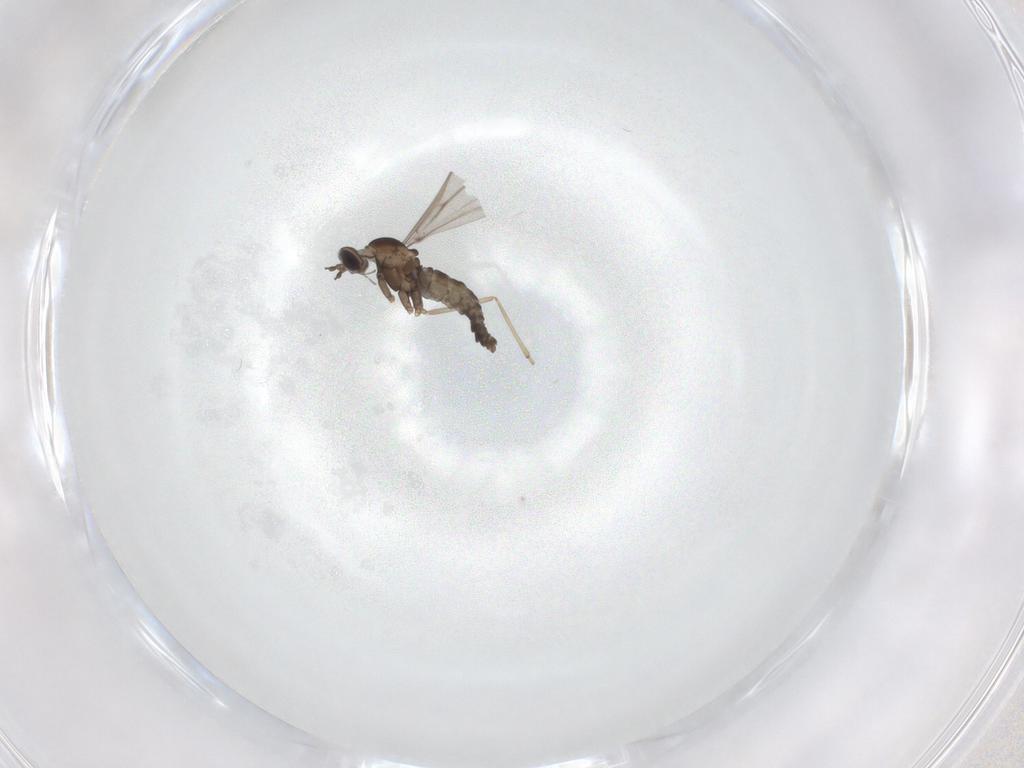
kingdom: Animalia
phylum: Arthropoda
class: Insecta
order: Diptera
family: Cecidomyiidae
